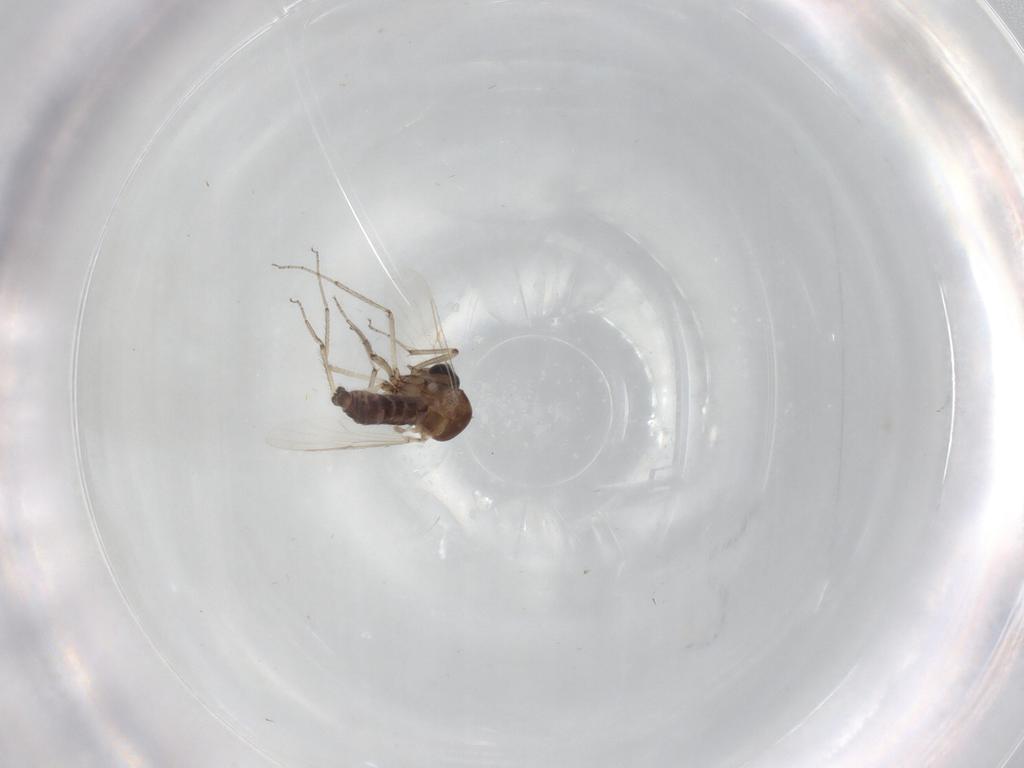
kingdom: Animalia
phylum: Arthropoda
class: Insecta
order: Diptera
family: Ceratopogonidae
